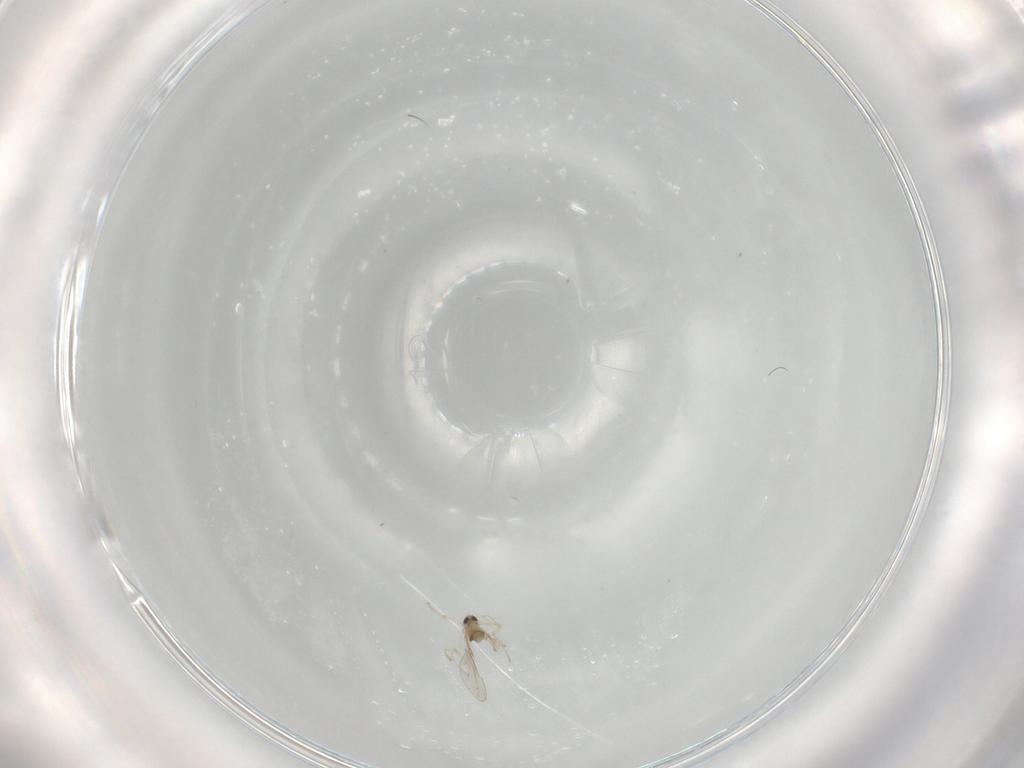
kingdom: Animalia
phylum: Arthropoda
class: Insecta
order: Diptera
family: Cecidomyiidae
